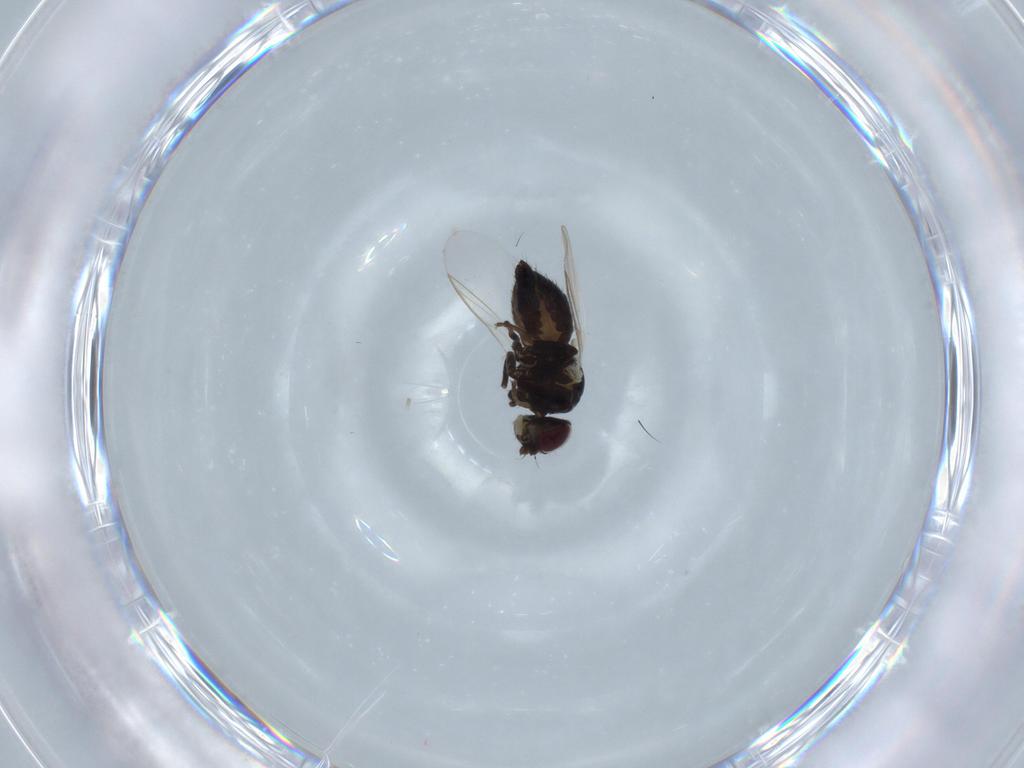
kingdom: Animalia
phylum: Arthropoda
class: Insecta
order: Diptera
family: Agromyzidae
